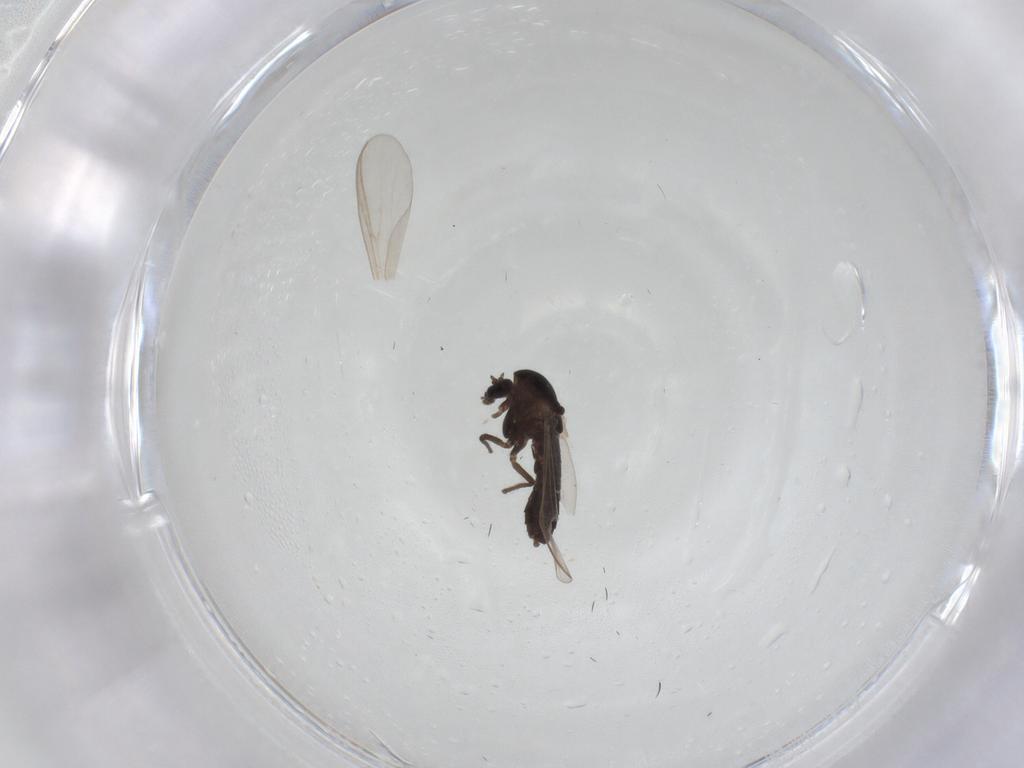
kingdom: Animalia
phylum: Arthropoda
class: Insecta
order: Diptera
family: Chironomidae
